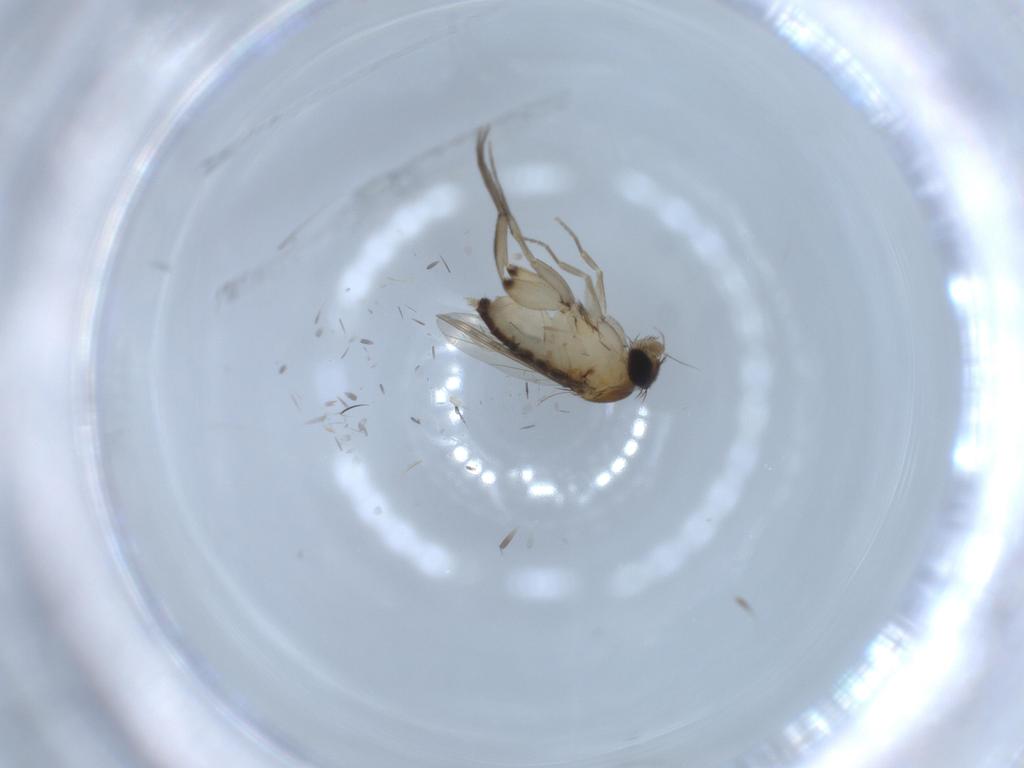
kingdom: Animalia
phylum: Arthropoda
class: Insecta
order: Diptera
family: Phoridae
